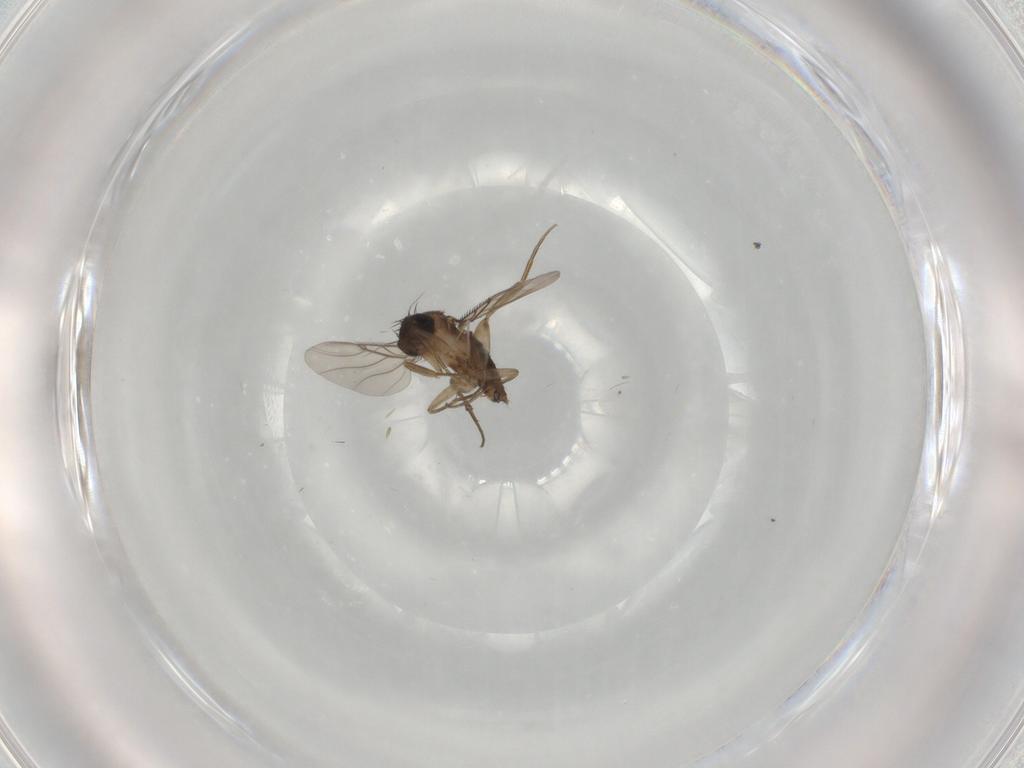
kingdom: Animalia
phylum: Arthropoda
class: Insecta
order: Diptera
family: Phoridae
